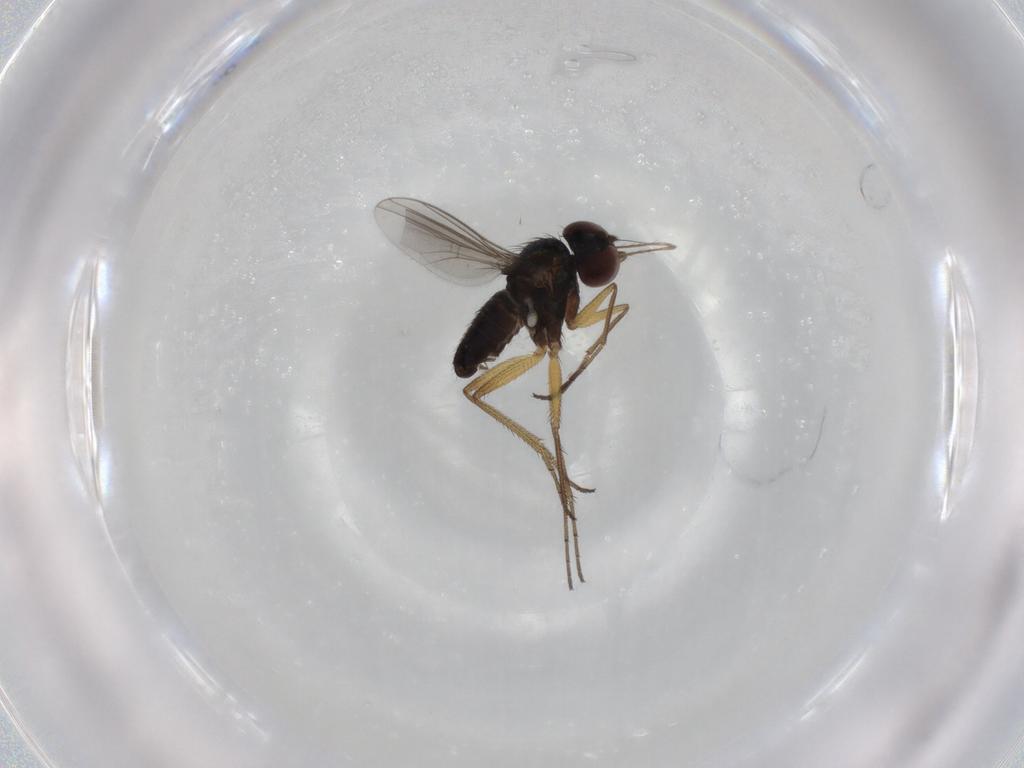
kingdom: Animalia
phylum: Arthropoda
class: Insecta
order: Diptera
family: Dolichopodidae
